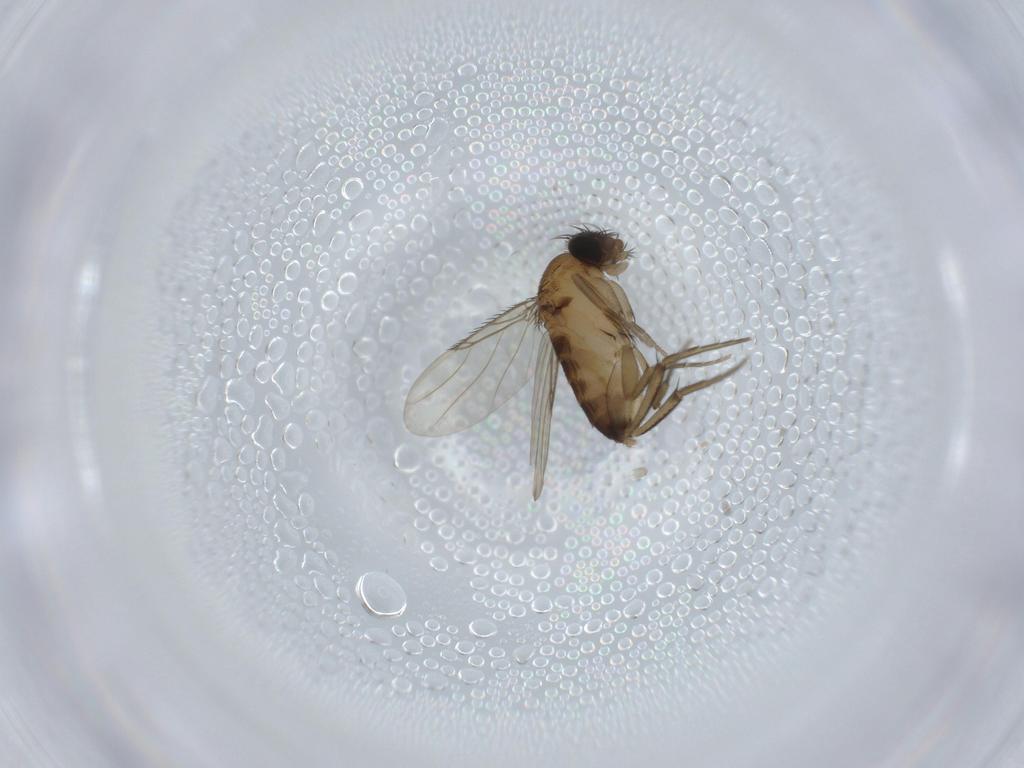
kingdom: Animalia
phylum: Arthropoda
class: Insecta
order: Diptera
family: Phoridae
